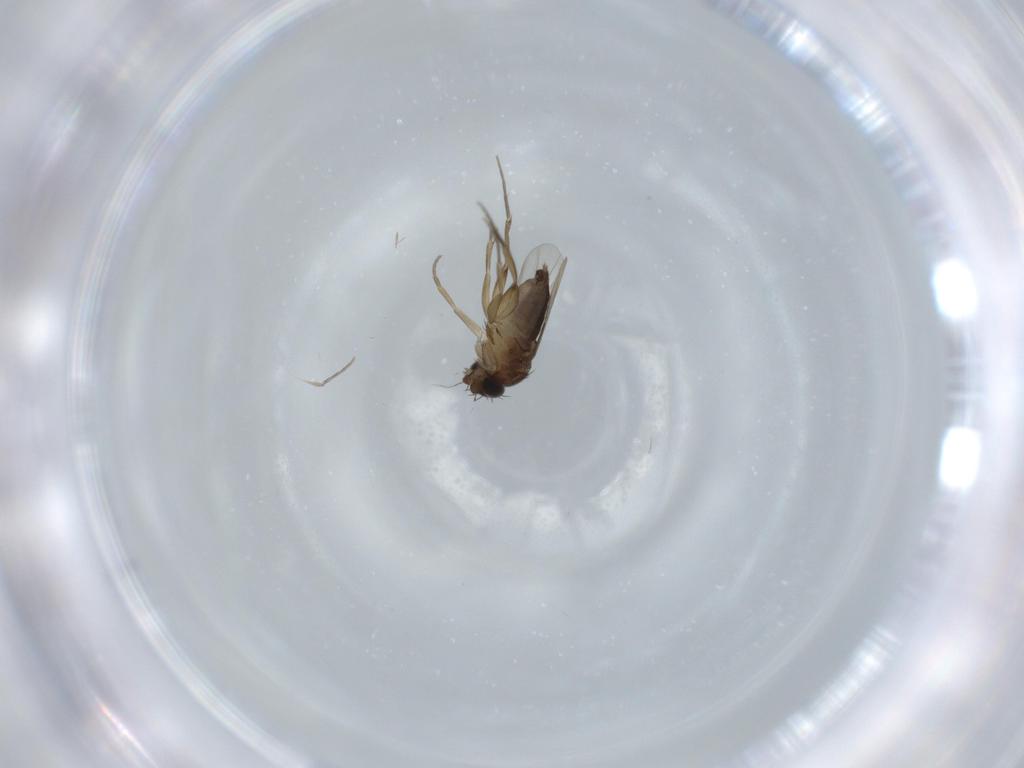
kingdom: Animalia
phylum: Arthropoda
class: Insecta
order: Diptera
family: Phoridae
